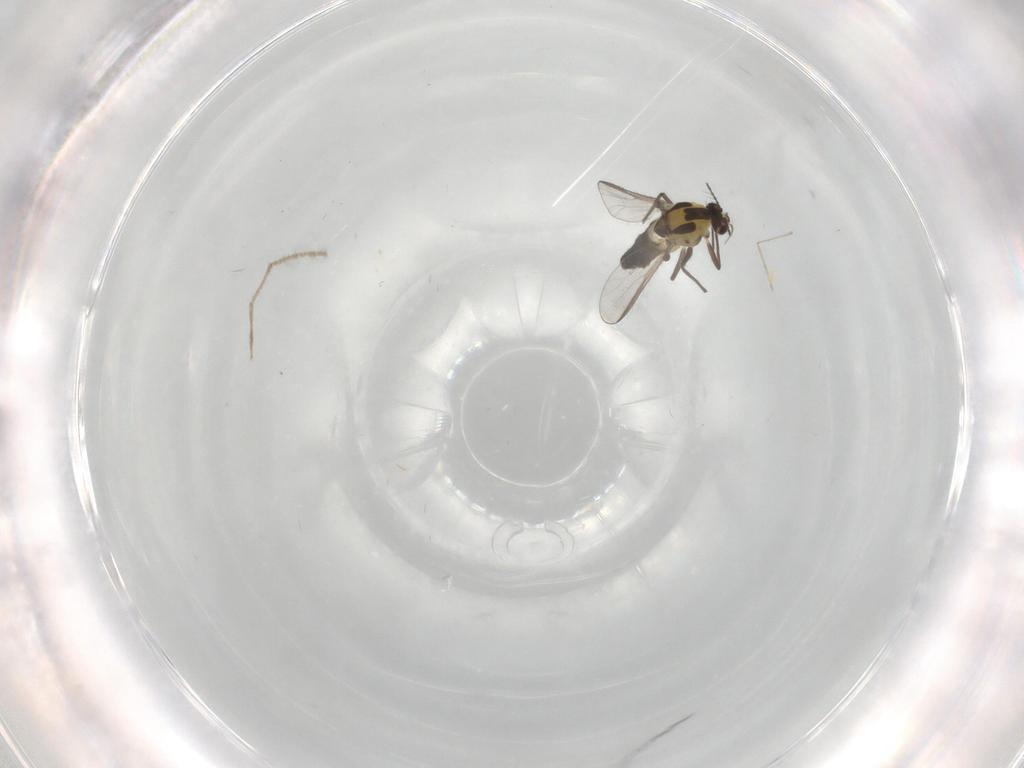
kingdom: Animalia
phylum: Arthropoda
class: Insecta
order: Diptera
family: Chironomidae
